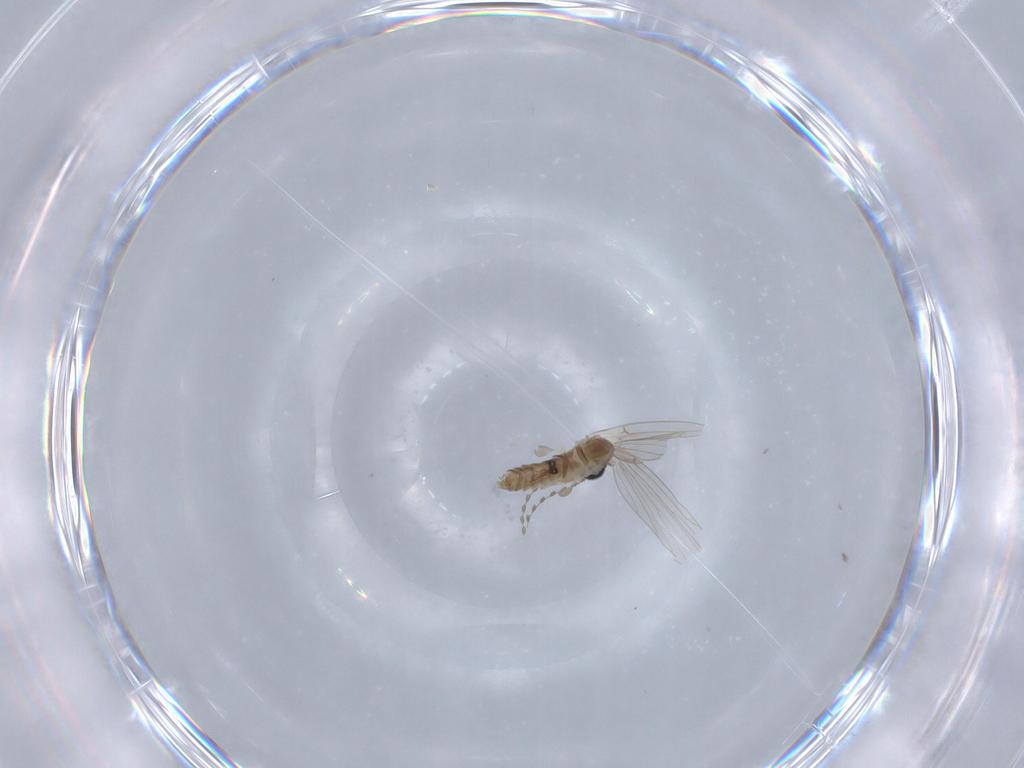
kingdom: Animalia
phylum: Arthropoda
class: Insecta
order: Diptera
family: Psychodidae
